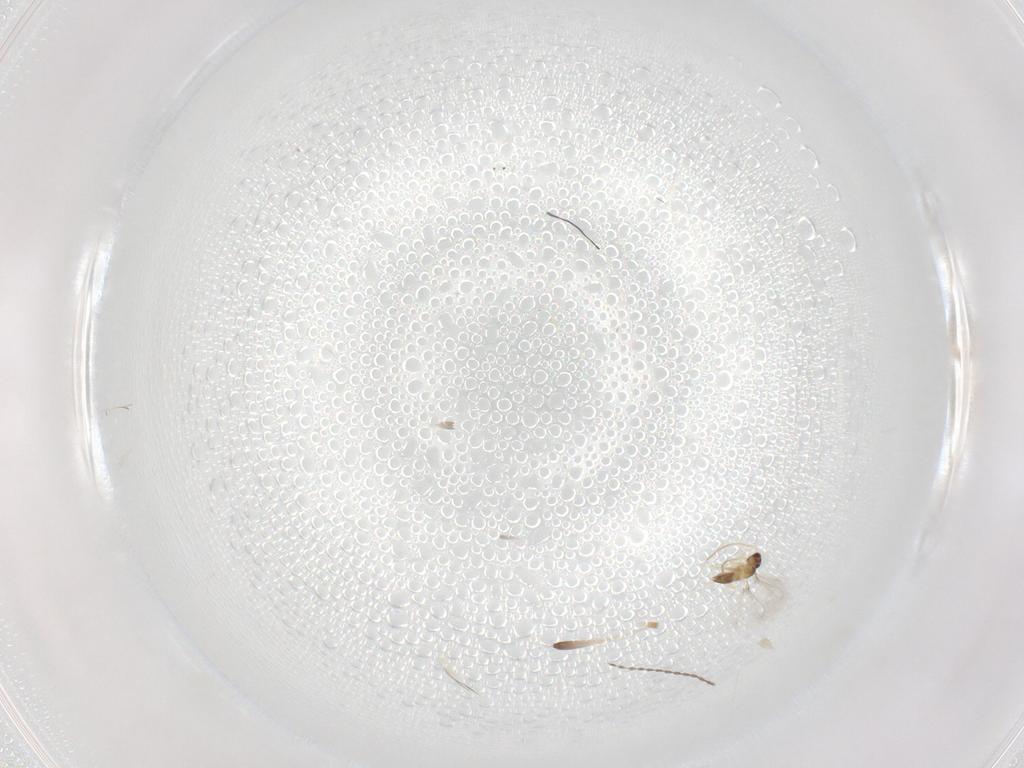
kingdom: Animalia
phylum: Arthropoda
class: Insecta
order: Hymenoptera
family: Mymaridae
